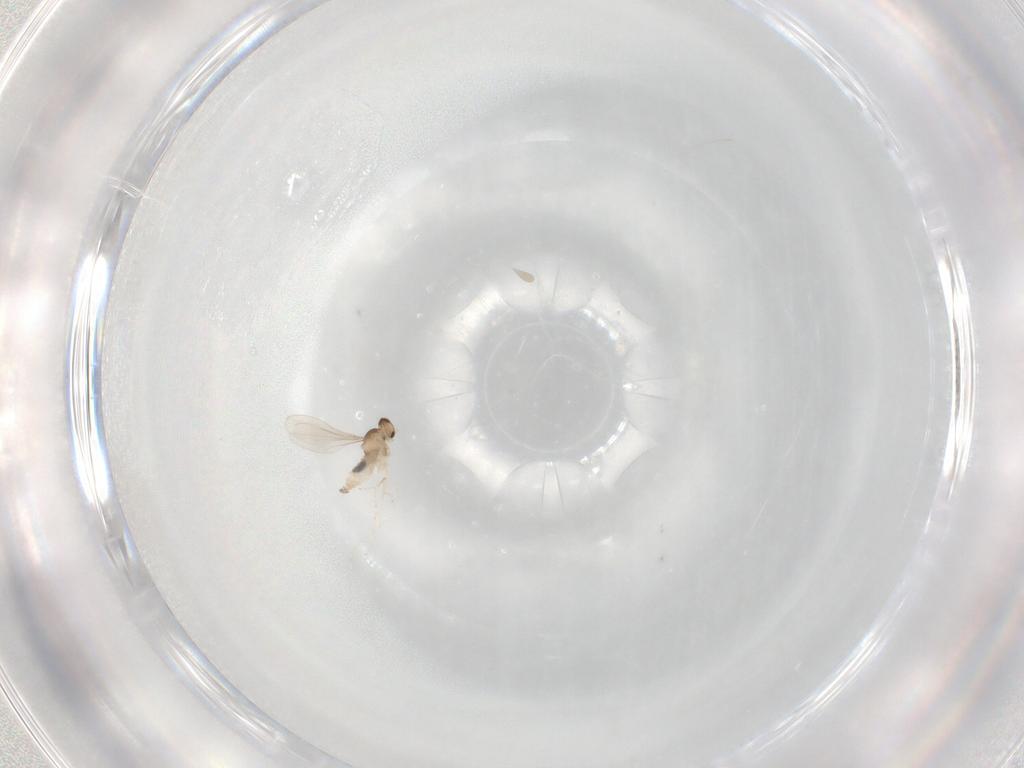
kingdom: Animalia
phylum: Arthropoda
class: Insecta
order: Diptera
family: Cecidomyiidae
